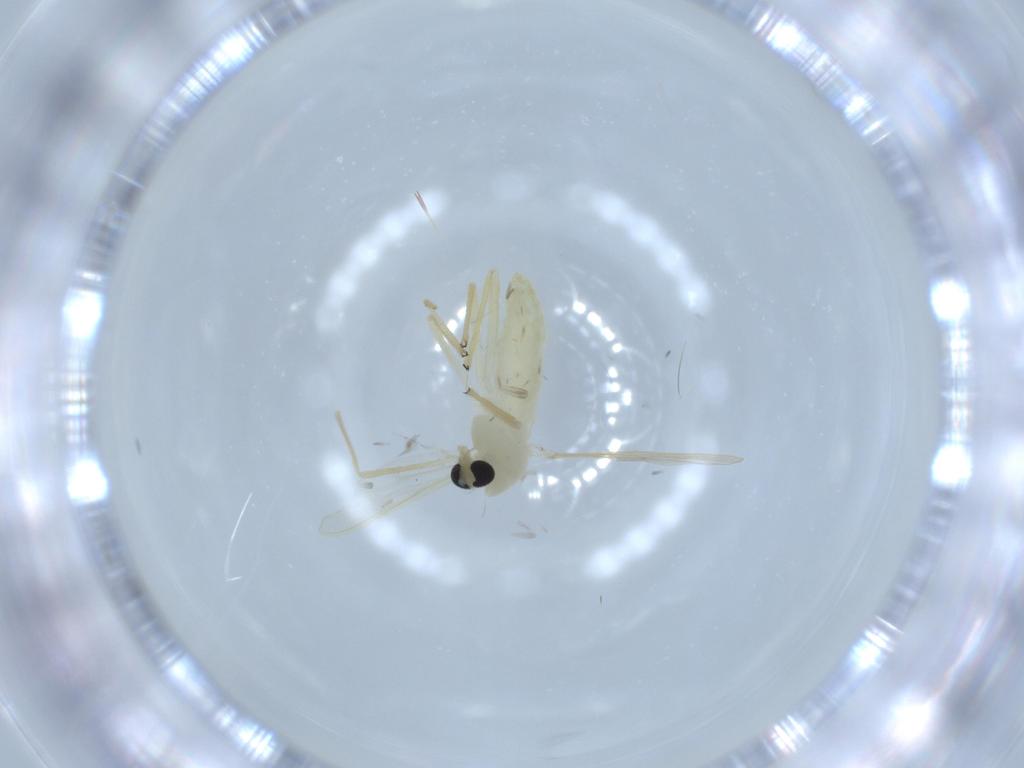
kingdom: Animalia
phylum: Arthropoda
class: Insecta
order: Diptera
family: Chironomidae
